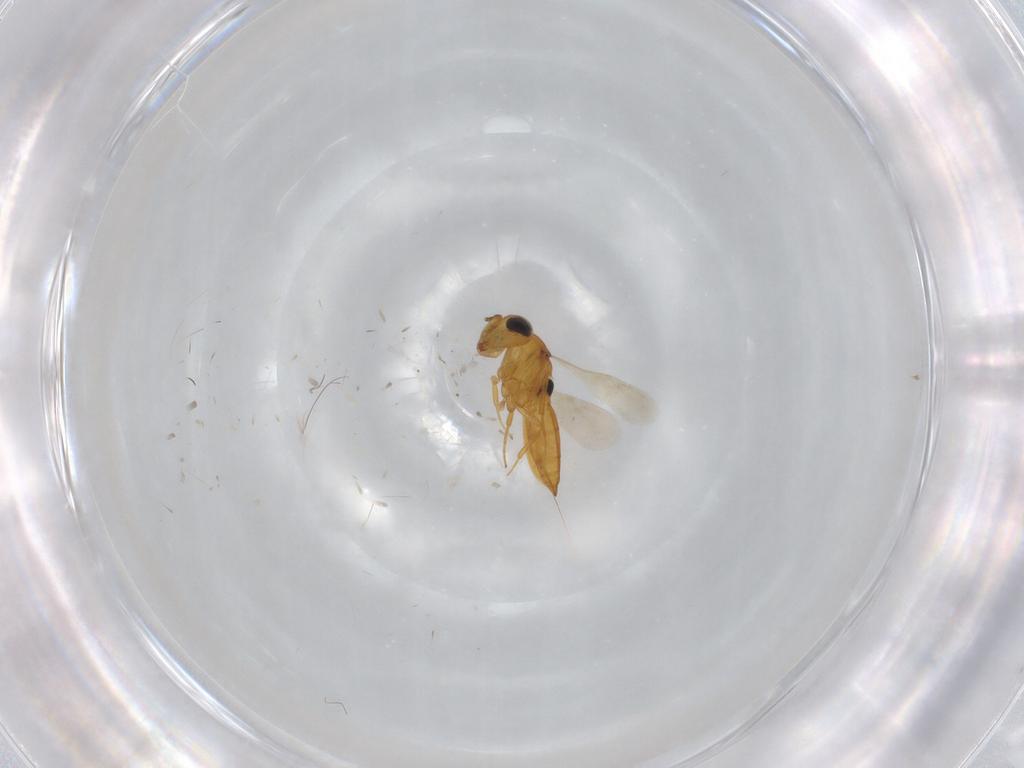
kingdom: Animalia
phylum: Arthropoda
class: Insecta
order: Hymenoptera
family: Scelionidae
